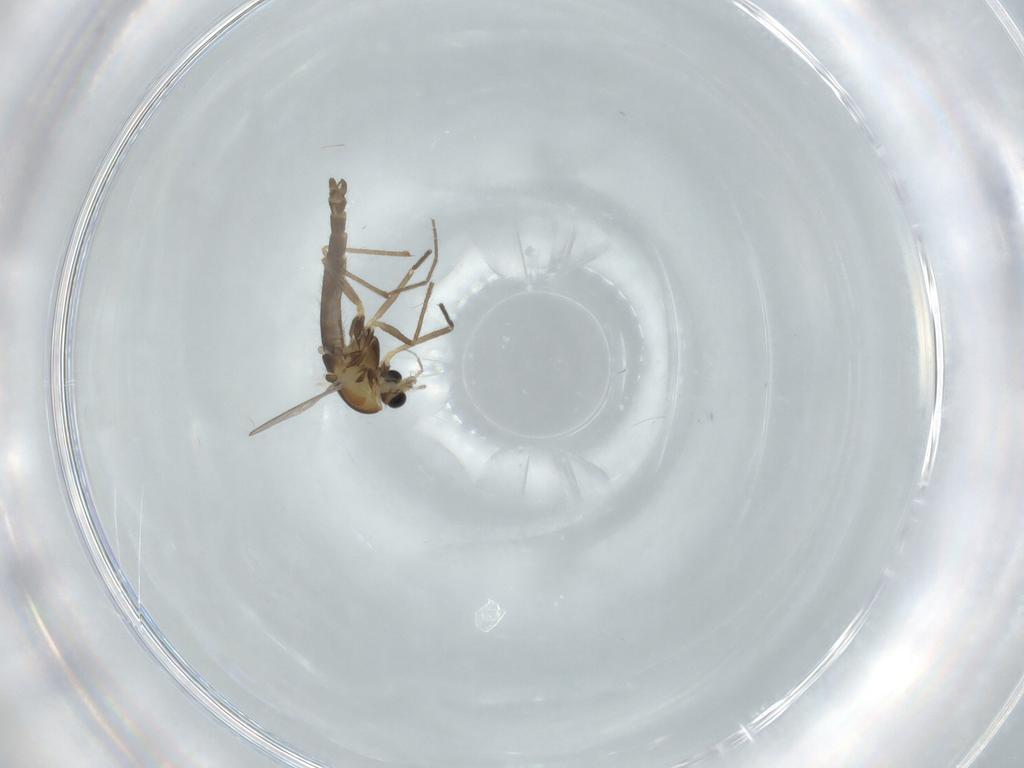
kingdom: Animalia
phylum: Arthropoda
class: Insecta
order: Diptera
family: Chironomidae
